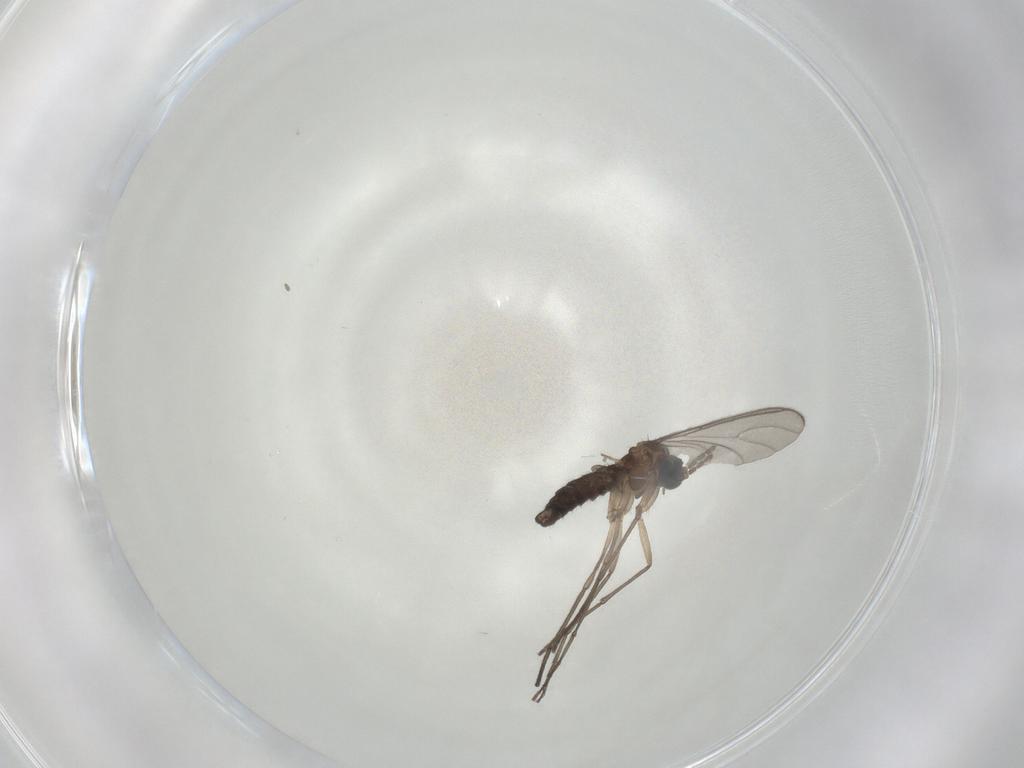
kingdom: Animalia
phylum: Arthropoda
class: Insecta
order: Diptera
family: Sciaridae
